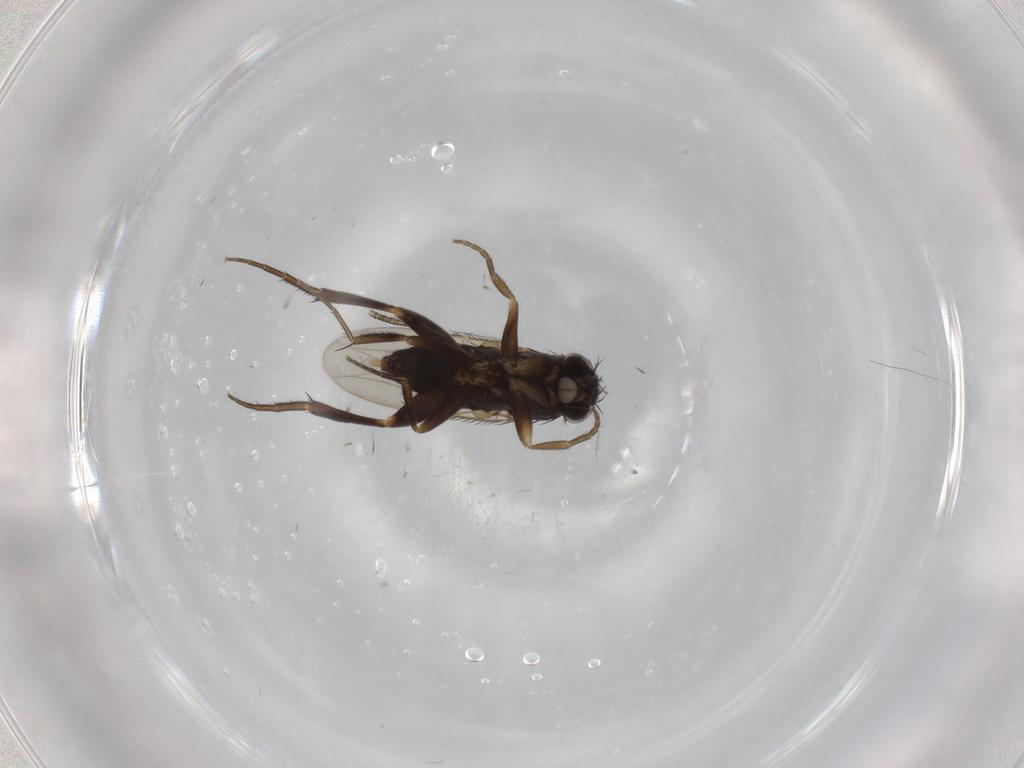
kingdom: Animalia
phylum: Arthropoda
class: Insecta
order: Diptera
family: Phoridae
